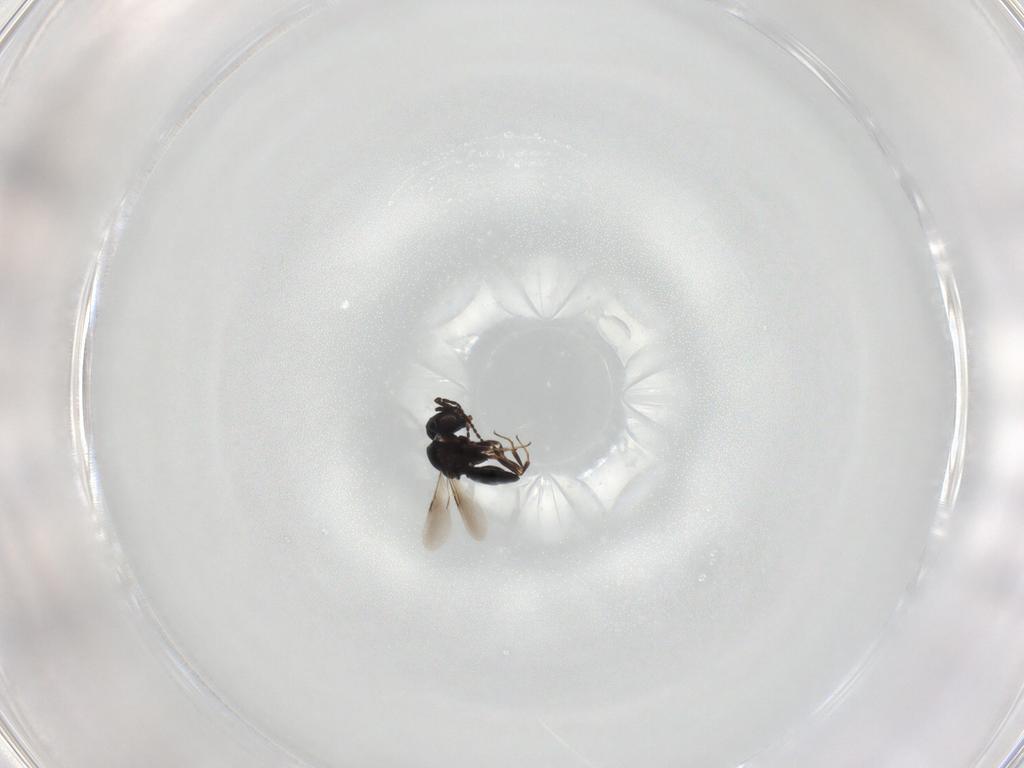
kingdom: Animalia
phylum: Arthropoda
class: Insecta
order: Hymenoptera
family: Scelionidae
